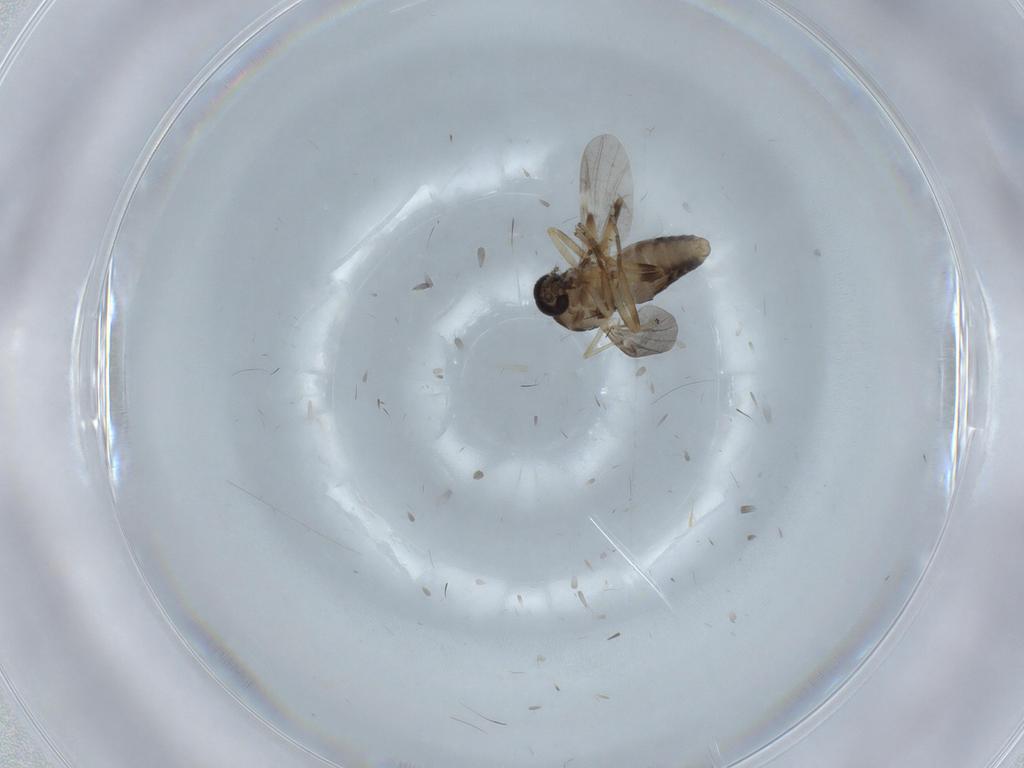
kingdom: Animalia
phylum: Arthropoda
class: Insecta
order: Diptera
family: Ceratopogonidae
